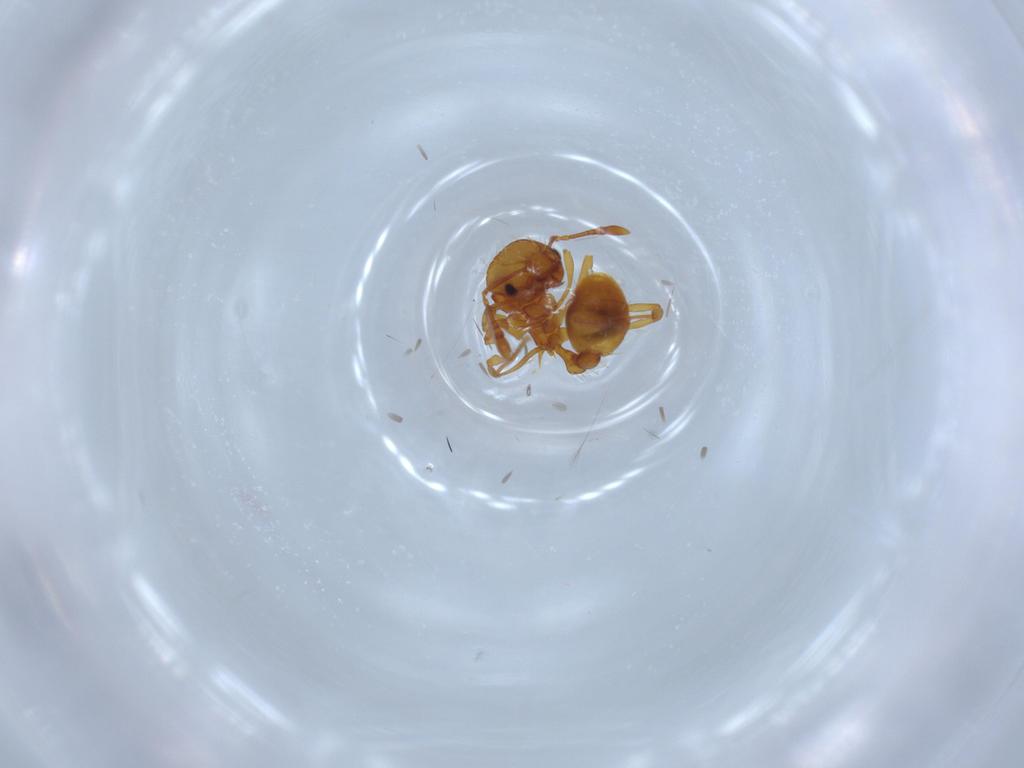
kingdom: Animalia
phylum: Arthropoda
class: Insecta
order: Hymenoptera
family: Formicidae
